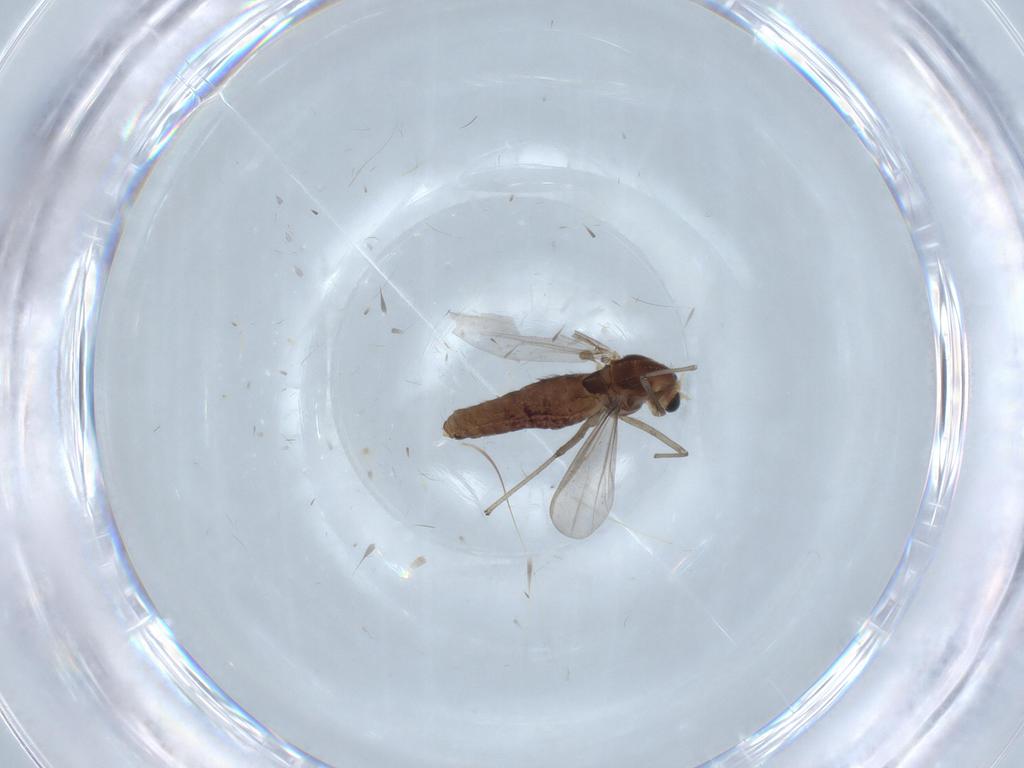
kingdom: Animalia
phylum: Arthropoda
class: Insecta
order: Diptera
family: Chironomidae
